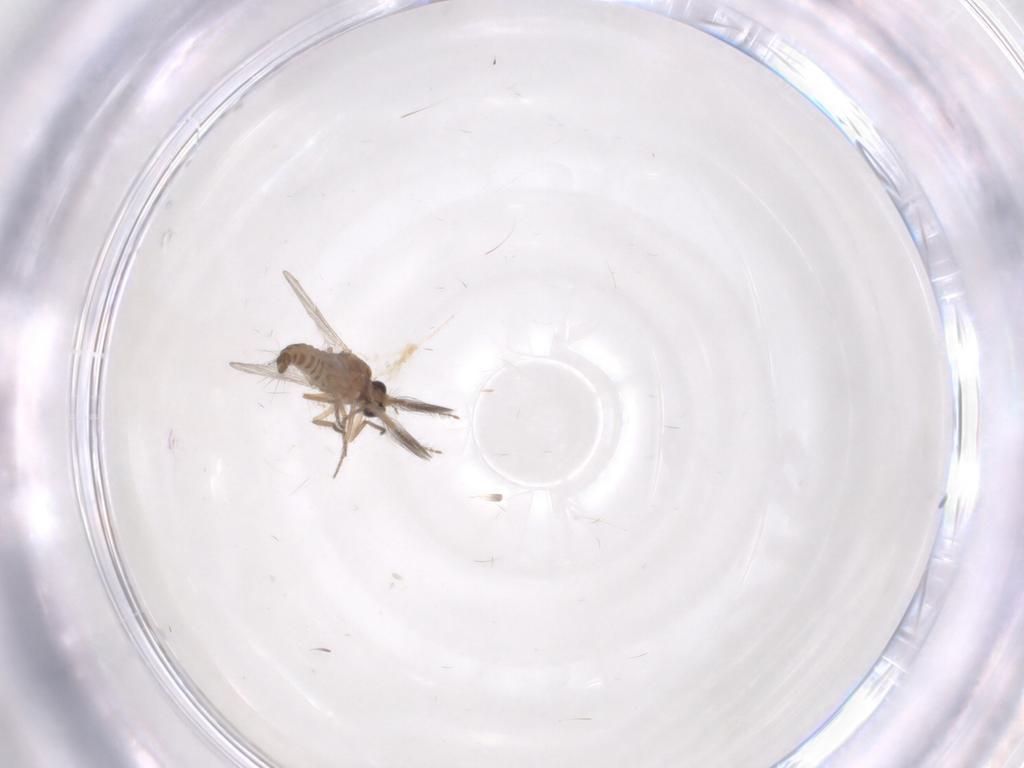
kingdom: Animalia
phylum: Arthropoda
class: Insecta
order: Diptera
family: Ceratopogonidae
